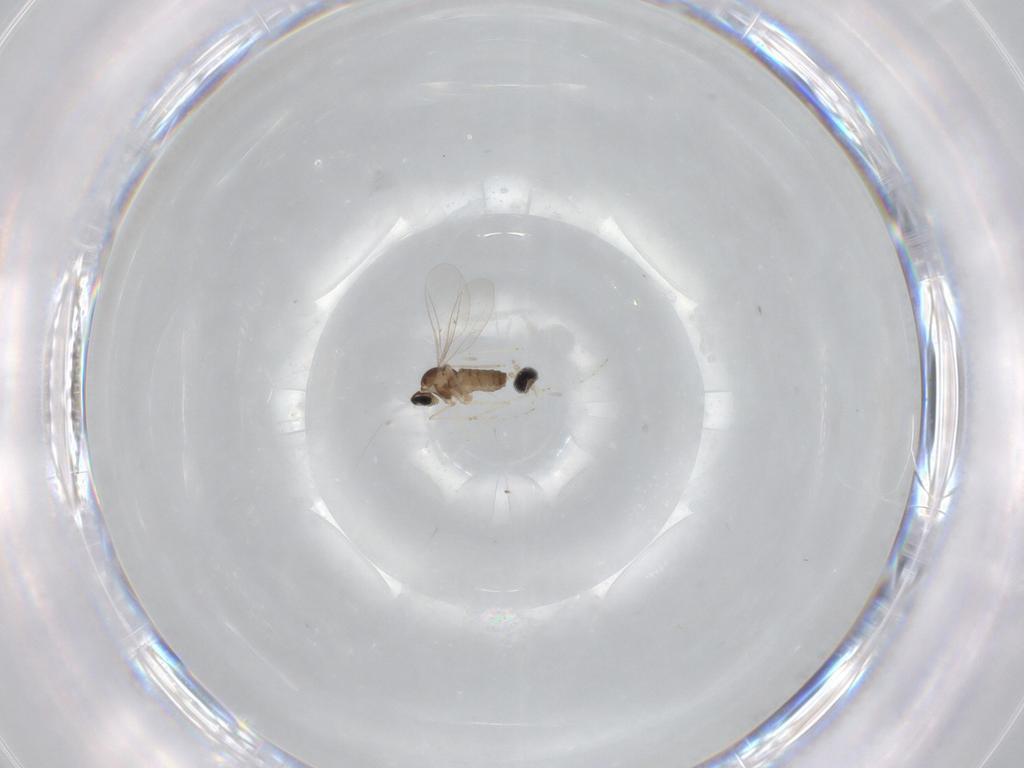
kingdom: Animalia
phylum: Arthropoda
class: Insecta
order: Diptera
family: Cecidomyiidae
